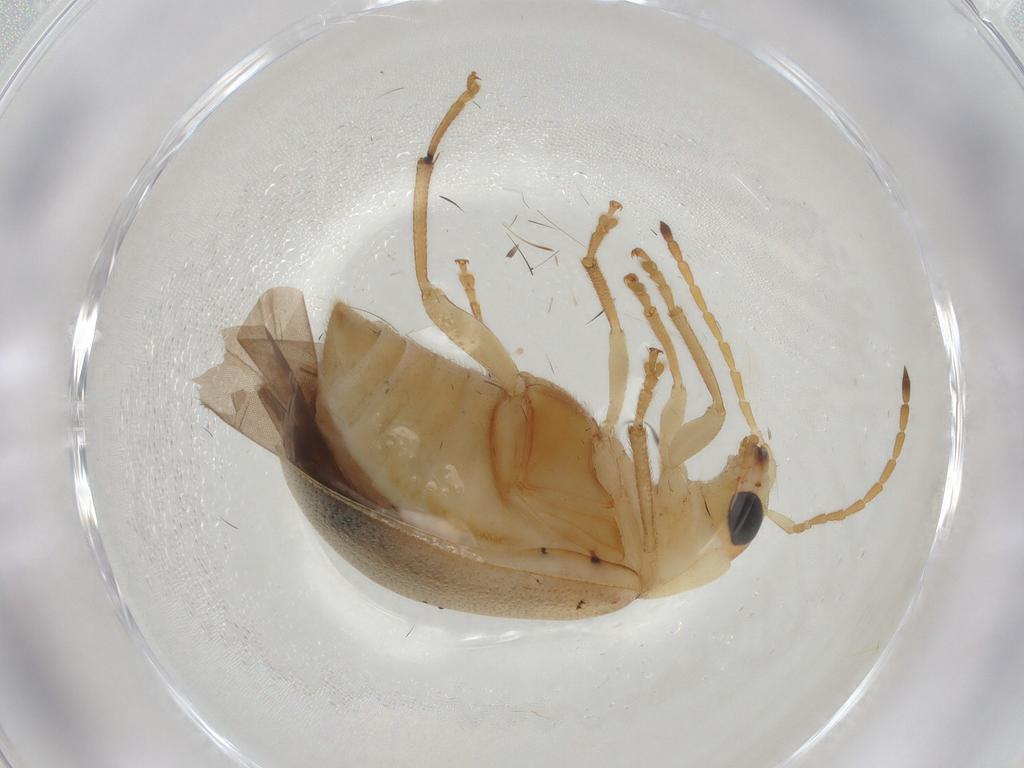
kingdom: Animalia
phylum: Arthropoda
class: Insecta
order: Coleoptera
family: Chrysomelidae
